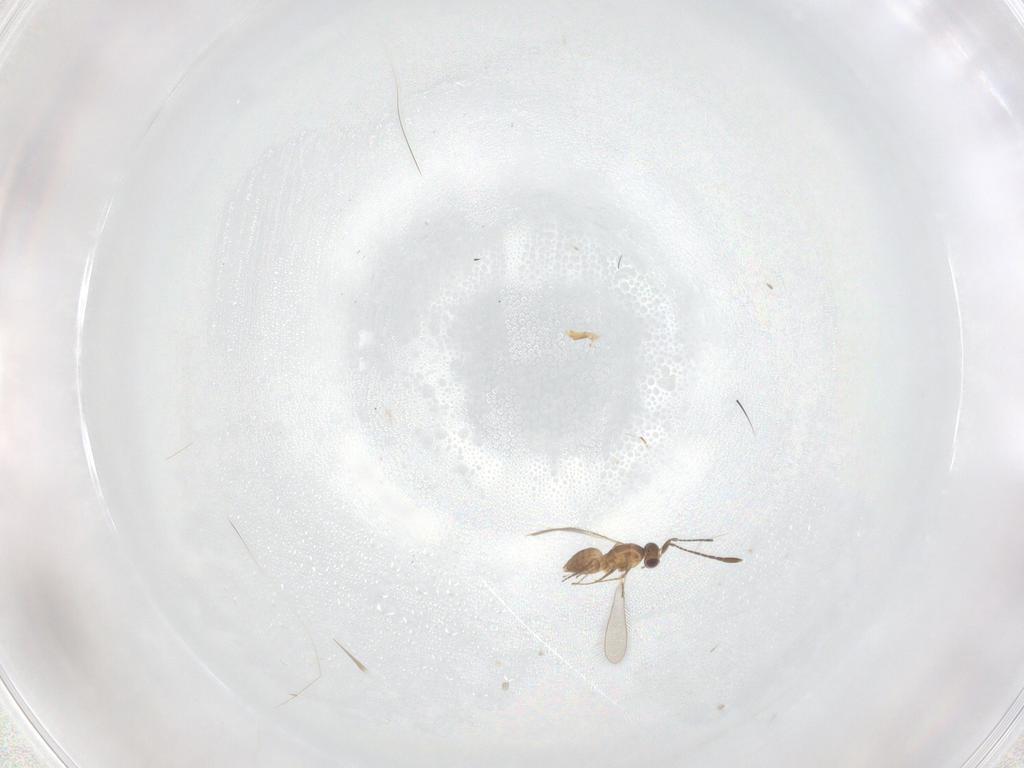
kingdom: Animalia
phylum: Arthropoda
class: Insecta
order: Hymenoptera
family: Mymaridae
